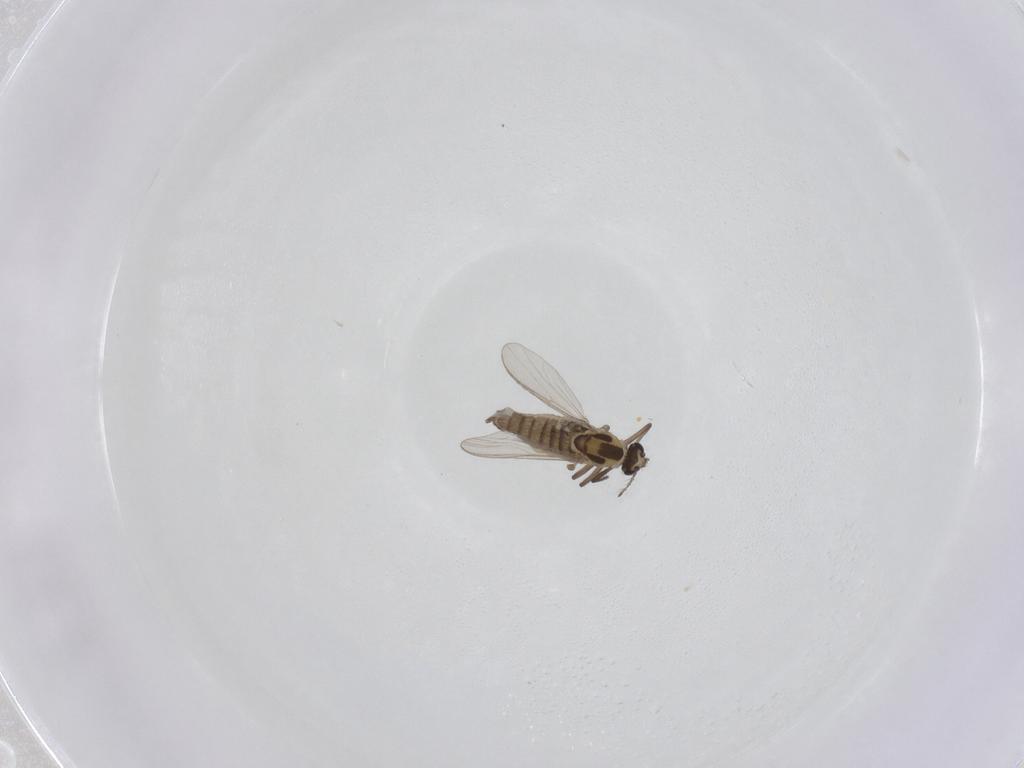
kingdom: Animalia
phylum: Arthropoda
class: Insecta
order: Diptera
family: Chironomidae
